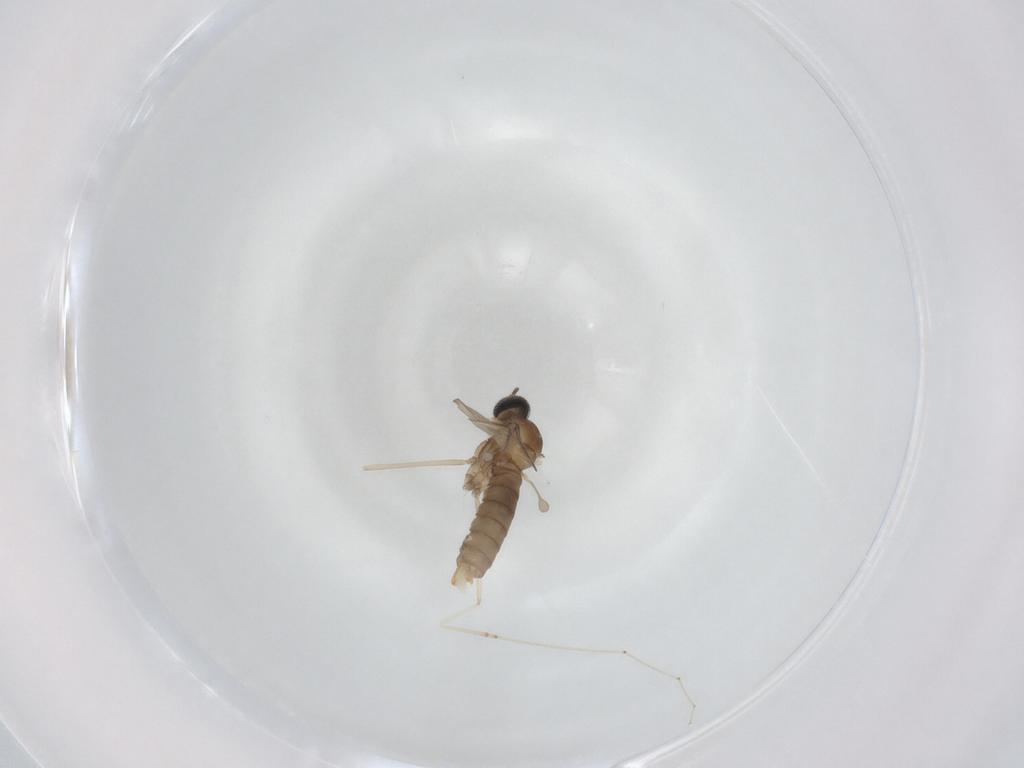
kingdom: Animalia
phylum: Arthropoda
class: Insecta
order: Diptera
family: Cecidomyiidae
